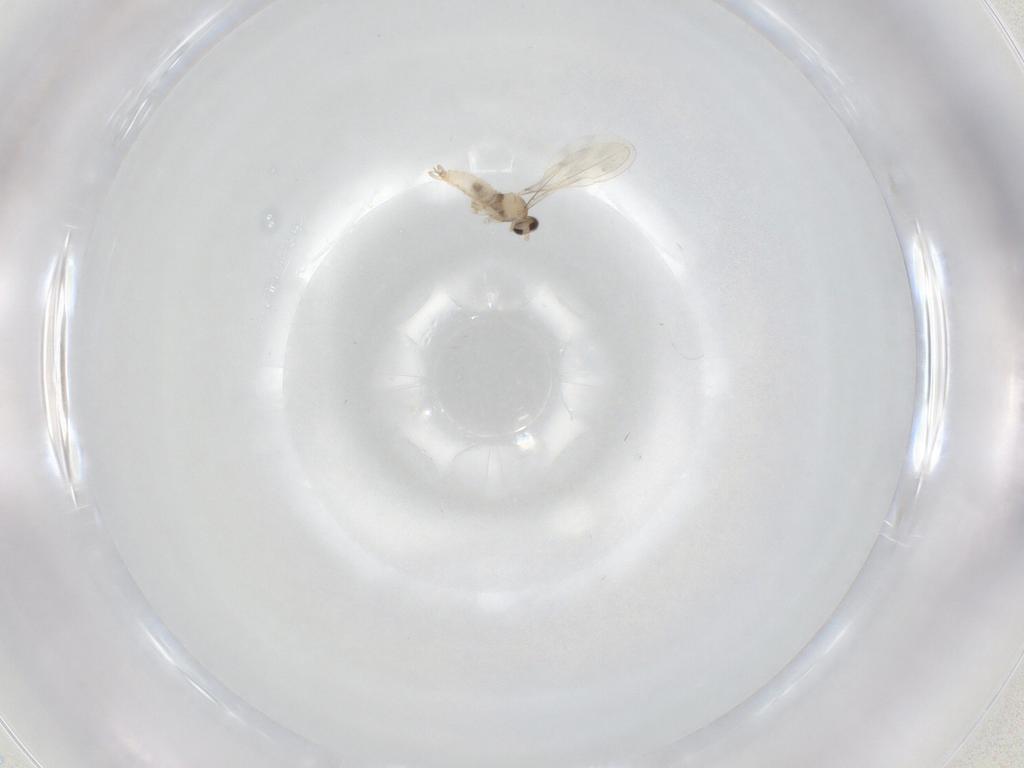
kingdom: Animalia
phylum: Arthropoda
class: Insecta
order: Diptera
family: Cecidomyiidae
